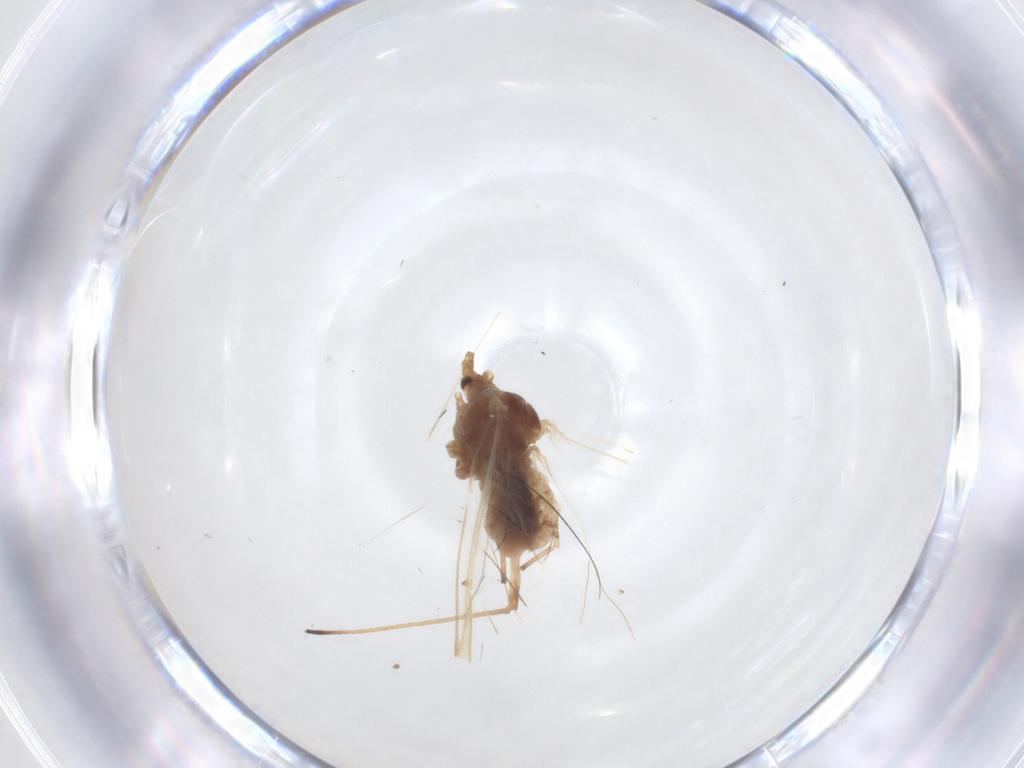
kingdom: Animalia
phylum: Arthropoda
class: Insecta
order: Hemiptera
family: Aphididae
